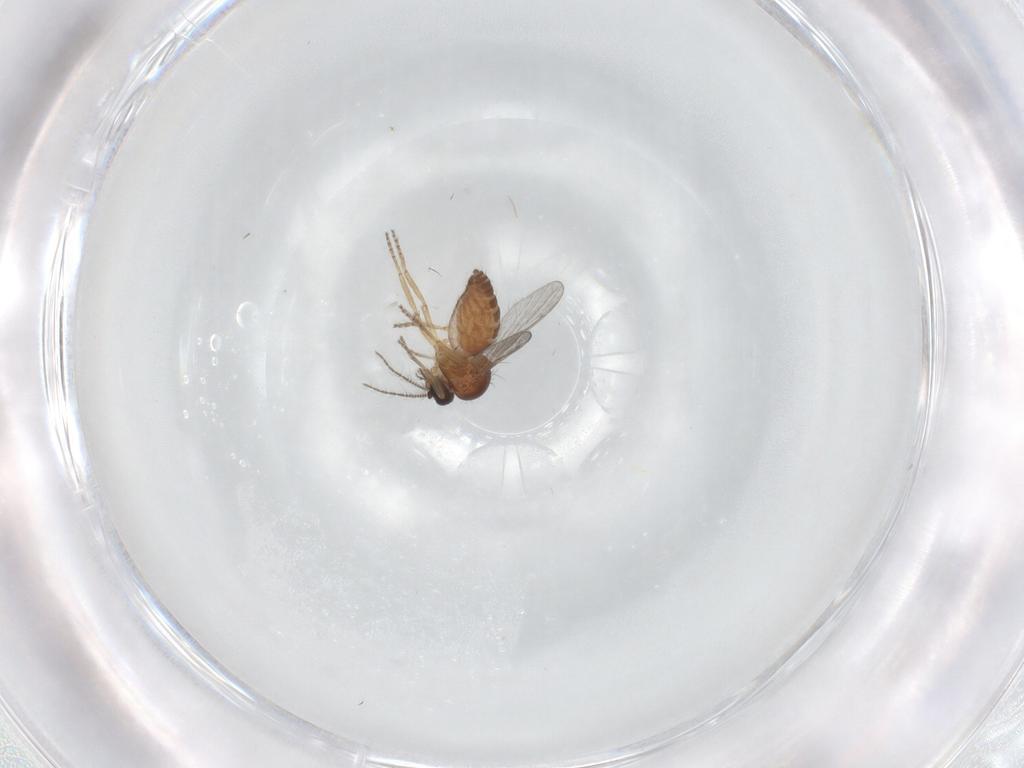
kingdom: Animalia
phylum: Arthropoda
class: Insecta
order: Diptera
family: Ceratopogonidae
